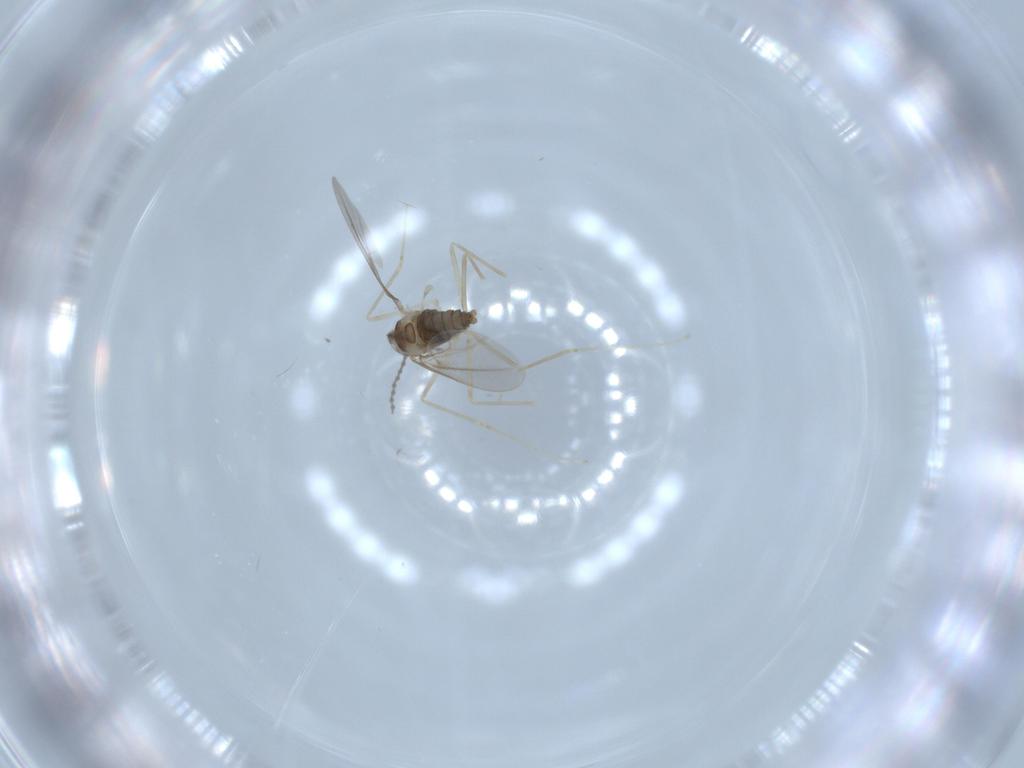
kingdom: Animalia
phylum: Arthropoda
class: Insecta
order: Diptera
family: Cecidomyiidae
